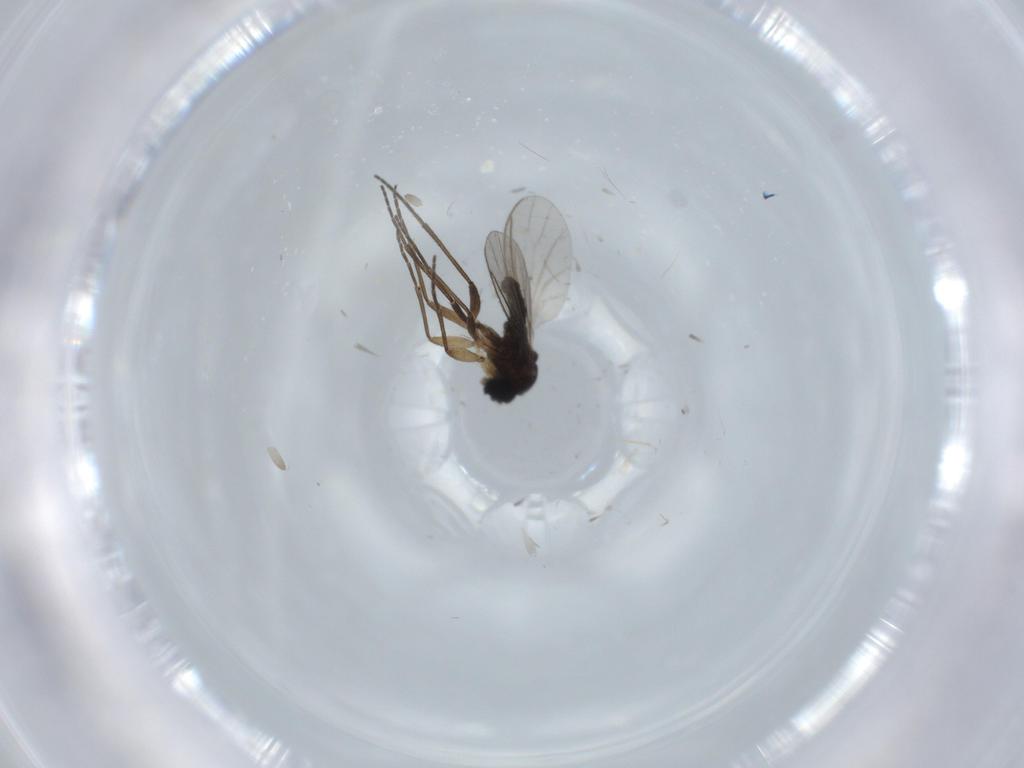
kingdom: Animalia
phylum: Arthropoda
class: Insecta
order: Diptera
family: Sciaridae
